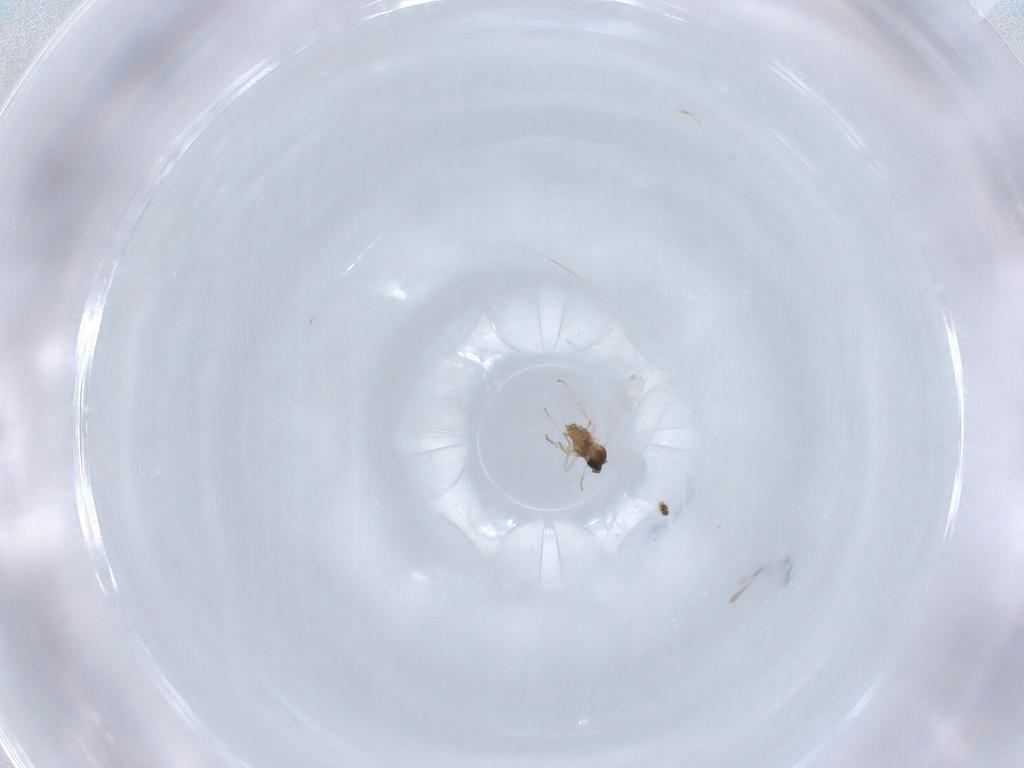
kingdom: Animalia
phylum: Arthropoda
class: Insecta
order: Diptera
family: Cecidomyiidae
